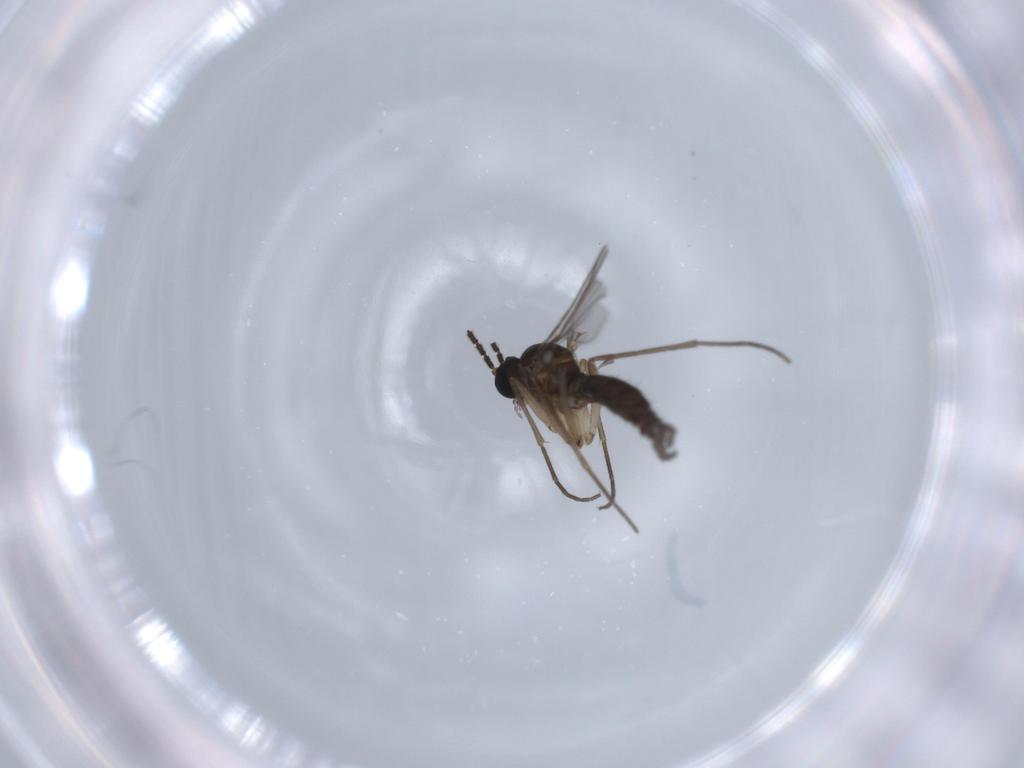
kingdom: Animalia
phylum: Arthropoda
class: Insecta
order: Diptera
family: Sciaridae
